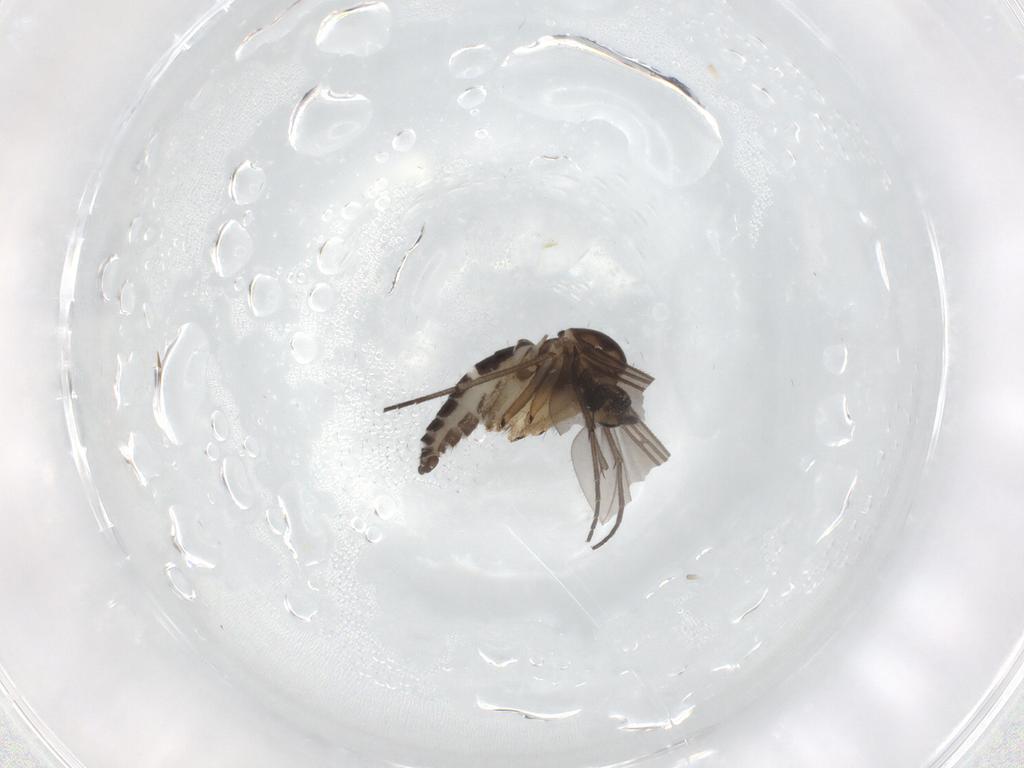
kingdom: Animalia
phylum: Arthropoda
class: Insecta
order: Diptera
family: Sciaridae
